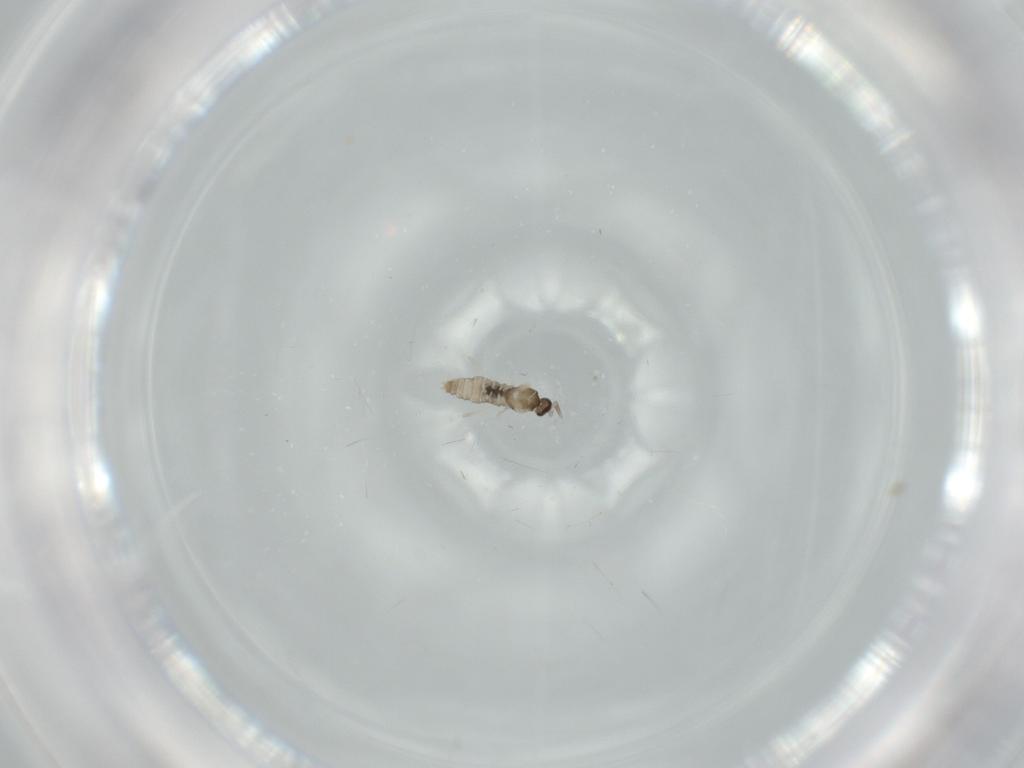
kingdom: Animalia
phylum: Arthropoda
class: Insecta
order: Diptera
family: Cecidomyiidae
